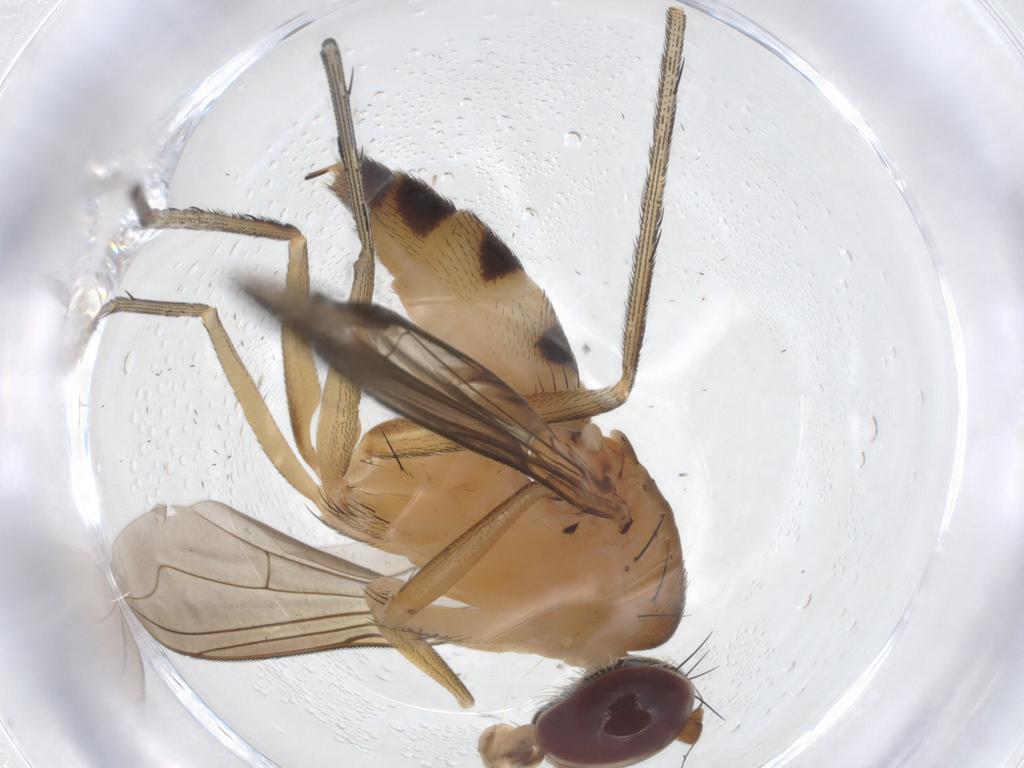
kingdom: Animalia
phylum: Arthropoda
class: Insecta
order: Diptera
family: Dolichopodidae
